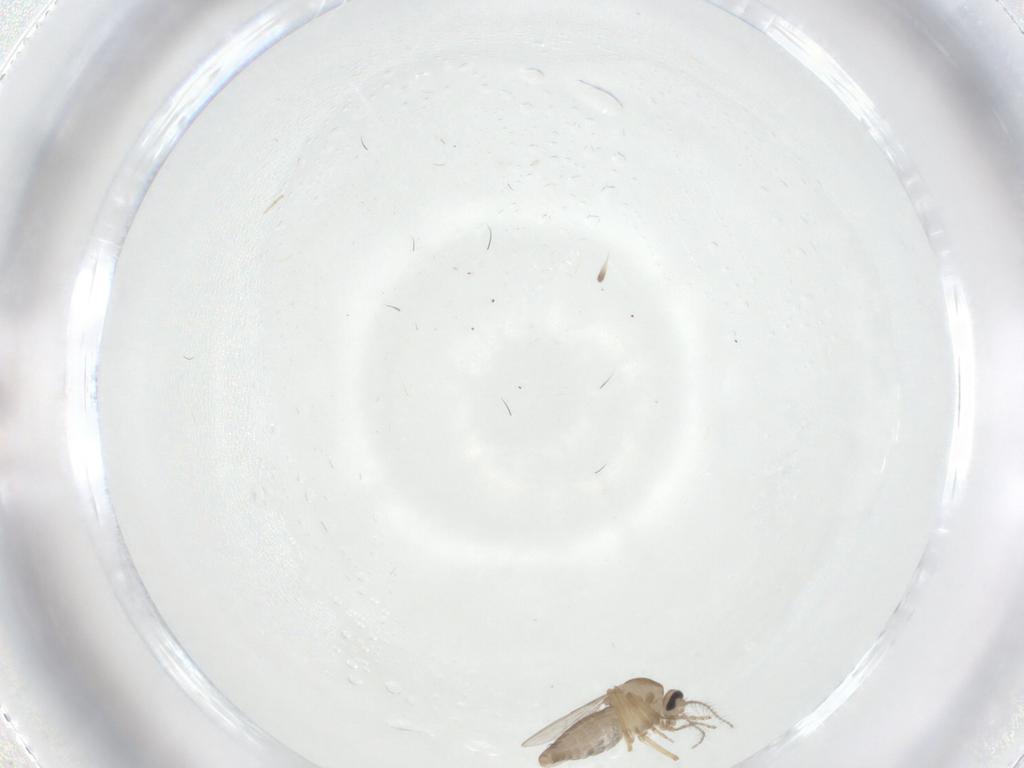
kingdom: Animalia
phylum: Arthropoda
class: Insecta
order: Diptera
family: Ceratopogonidae
